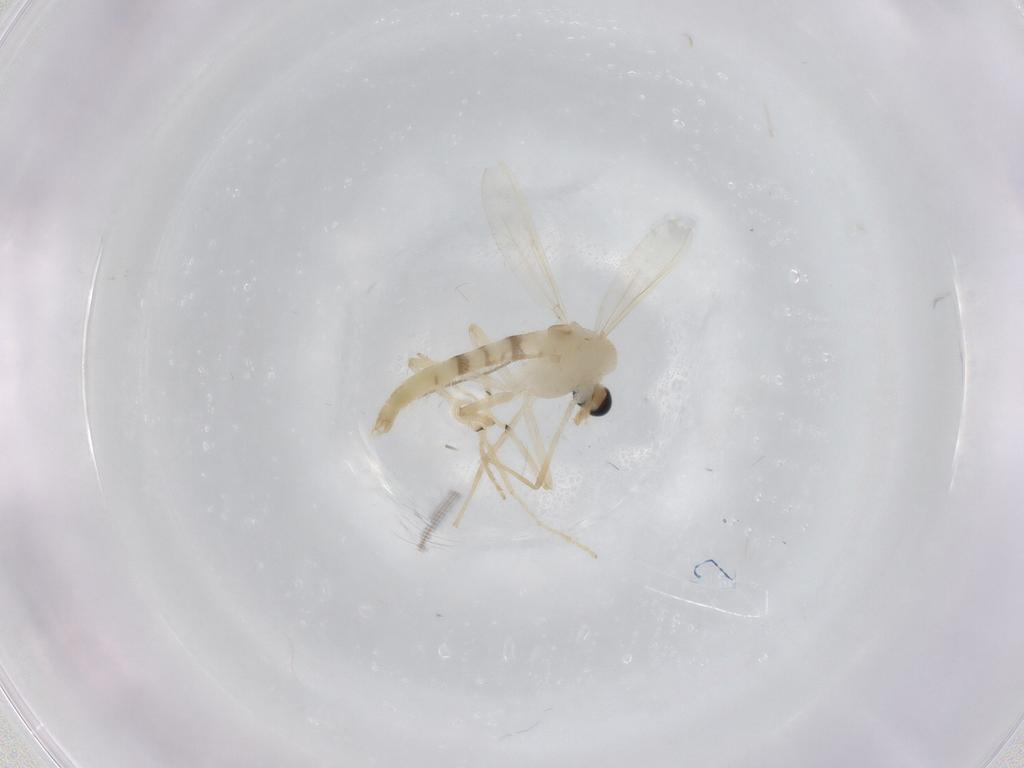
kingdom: Animalia
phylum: Arthropoda
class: Insecta
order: Diptera
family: Chironomidae
